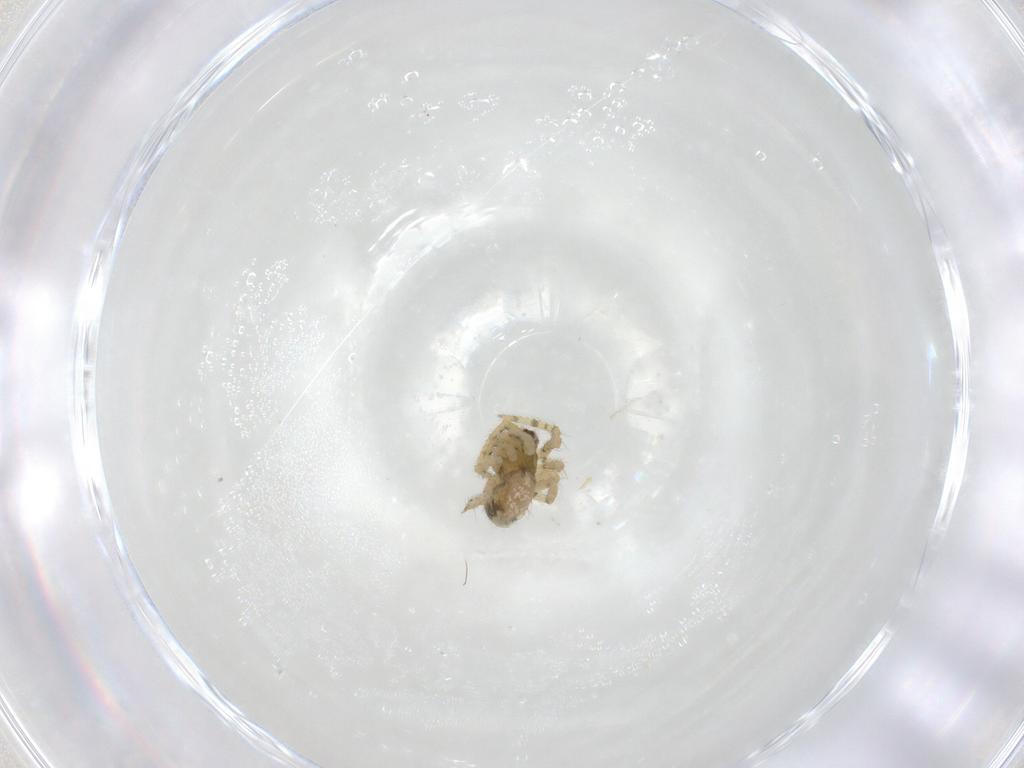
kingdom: Animalia
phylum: Arthropoda
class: Arachnida
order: Araneae
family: Theridiidae
